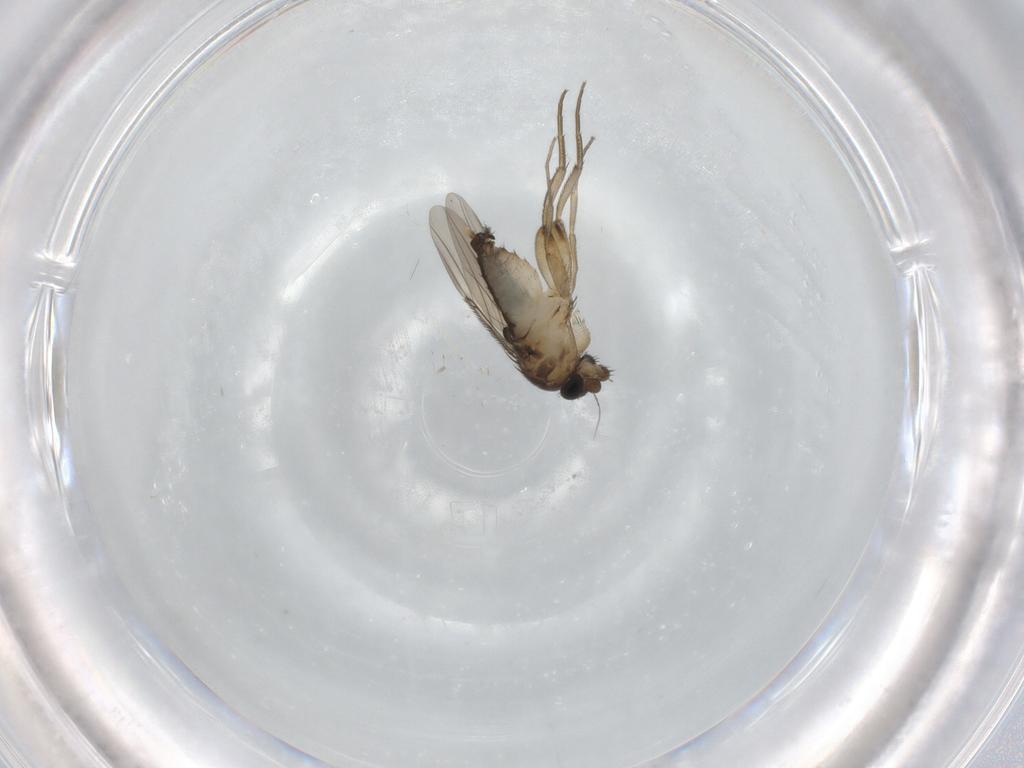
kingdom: Animalia
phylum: Arthropoda
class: Insecta
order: Diptera
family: Phoridae
